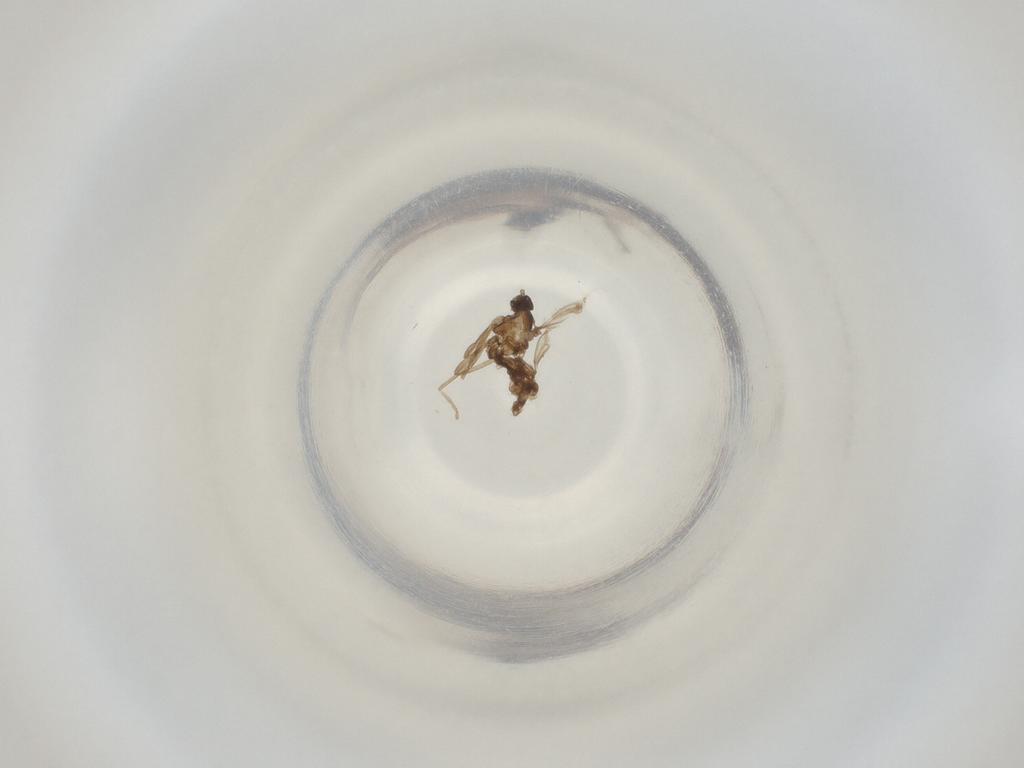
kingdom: Animalia
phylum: Arthropoda
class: Insecta
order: Diptera
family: Cecidomyiidae
